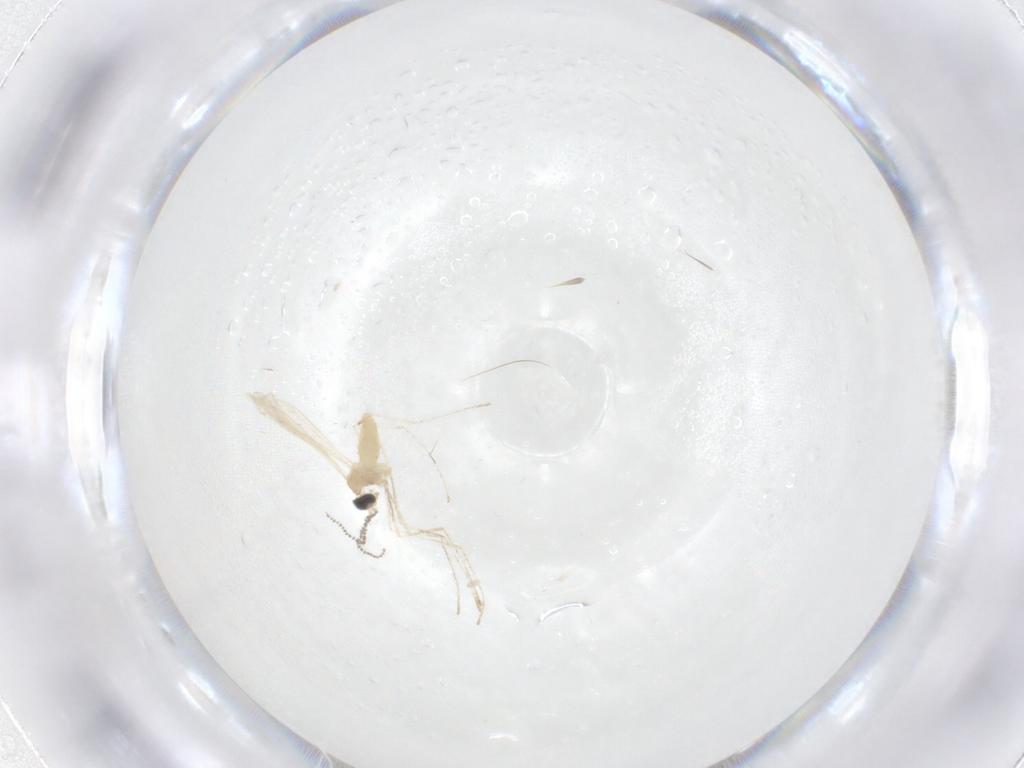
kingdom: Animalia
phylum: Arthropoda
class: Insecta
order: Diptera
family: Cecidomyiidae
